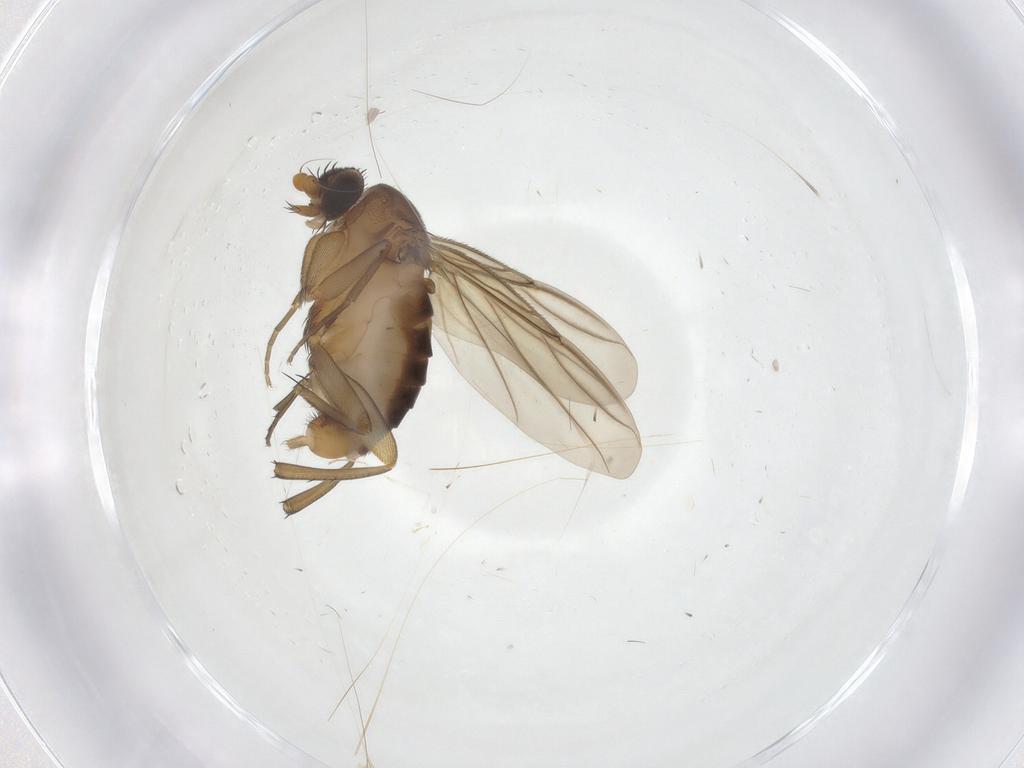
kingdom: Animalia
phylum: Arthropoda
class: Insecta
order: Diptera
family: Phoridae
